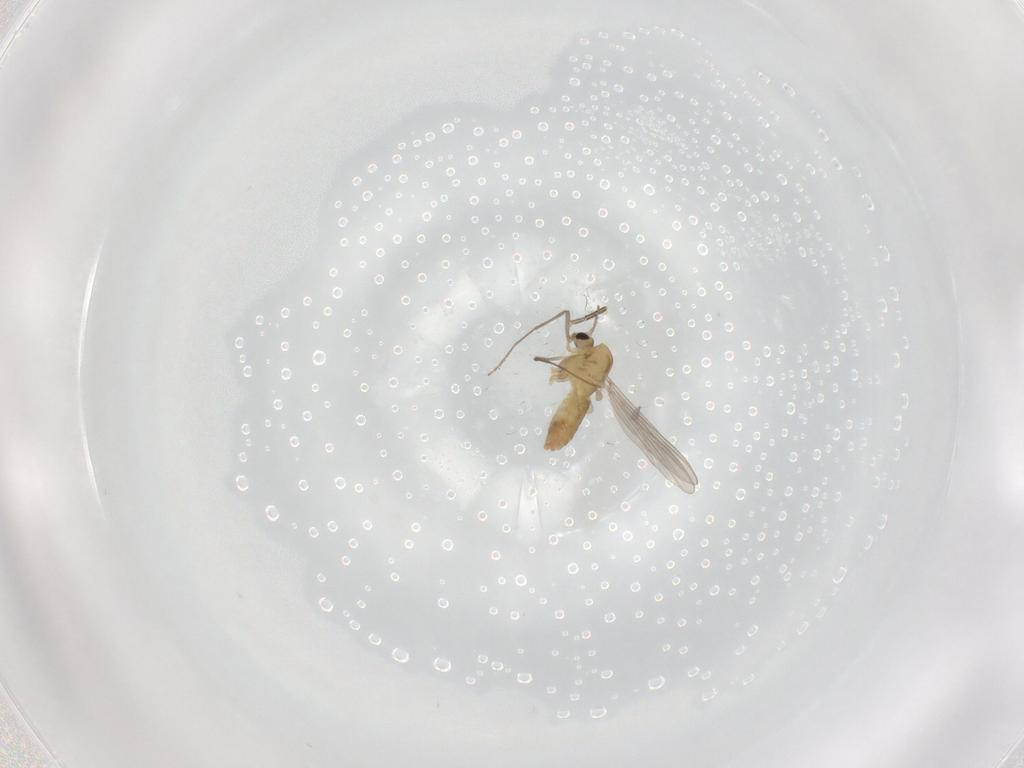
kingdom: Animalia
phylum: Arthropoda
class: Insecta
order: Diptera
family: Chironomidae
